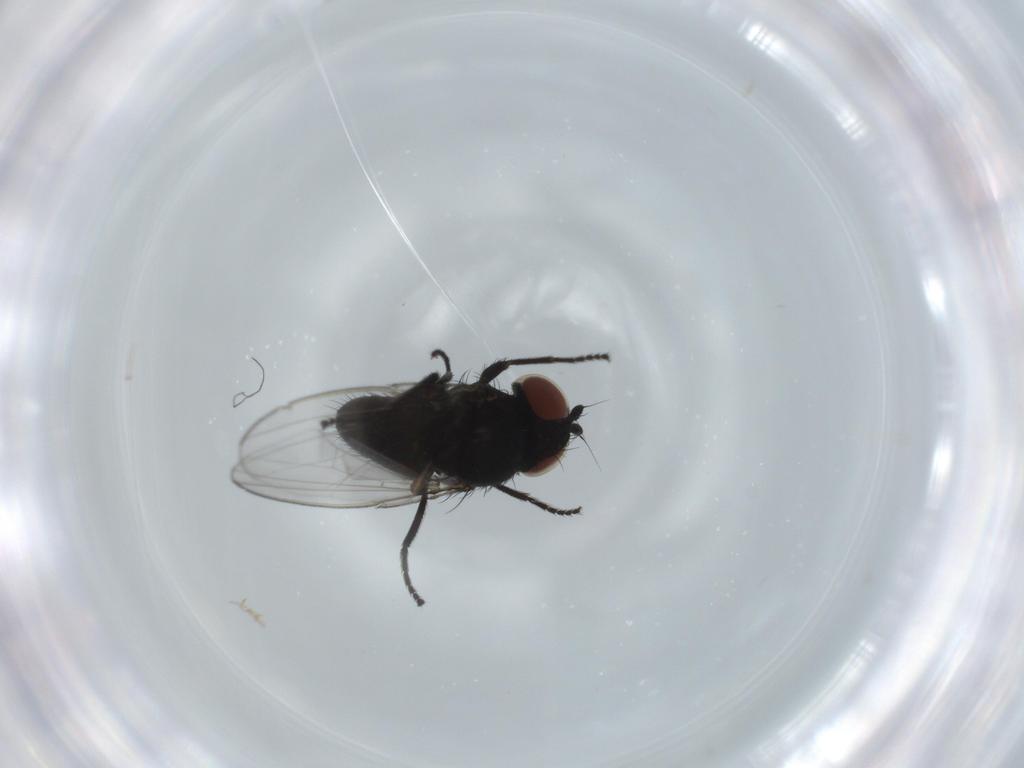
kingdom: Animalia
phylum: Arthropoda
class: Insecta
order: Diptera
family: Milichiidae
